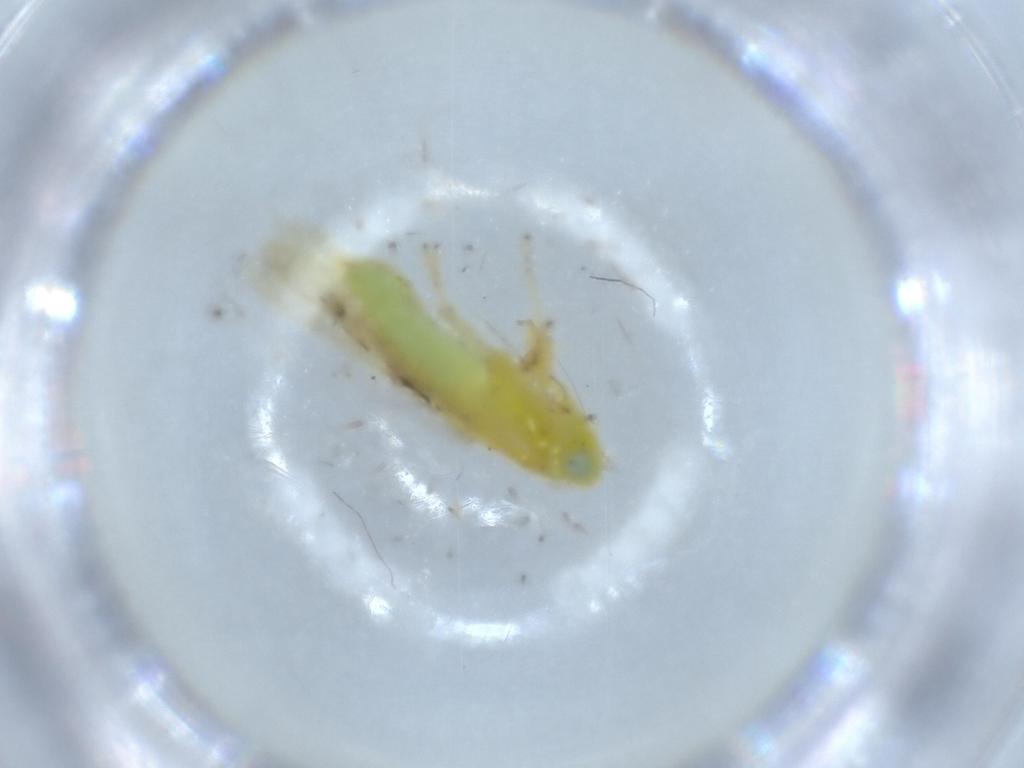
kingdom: Animalia
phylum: Arthropoda
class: Insecta
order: Hemiptera
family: Cicadellidae
